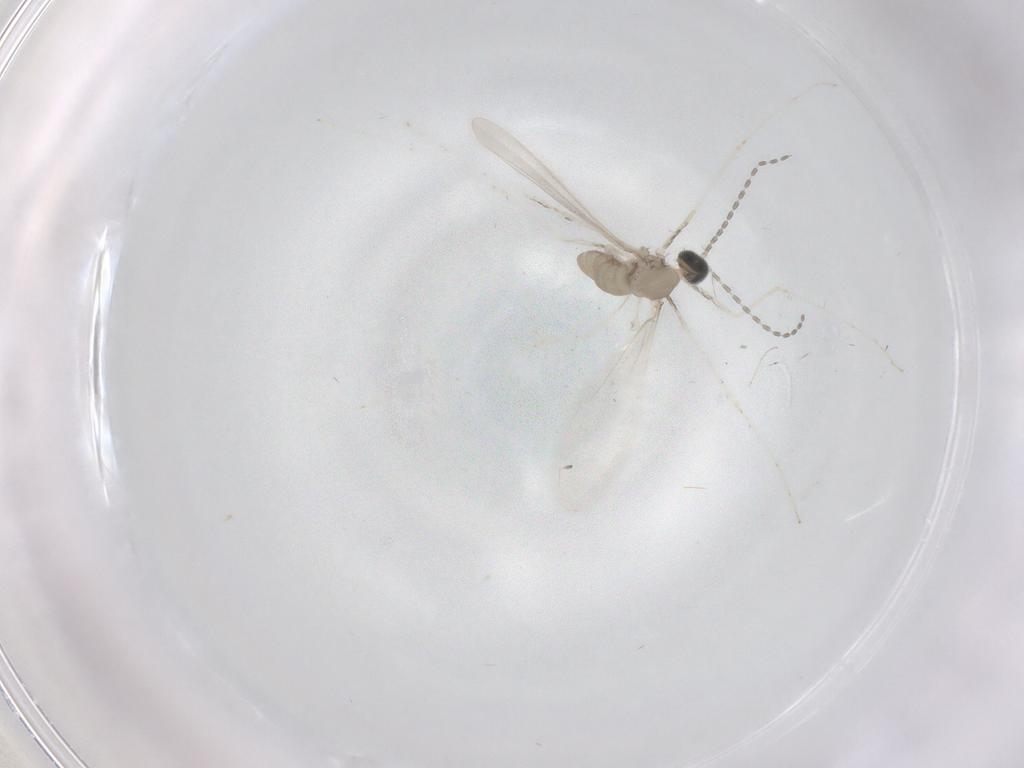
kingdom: Animalia
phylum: Arthropoda
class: Insecta
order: Diptera
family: Cecidomyiidae
